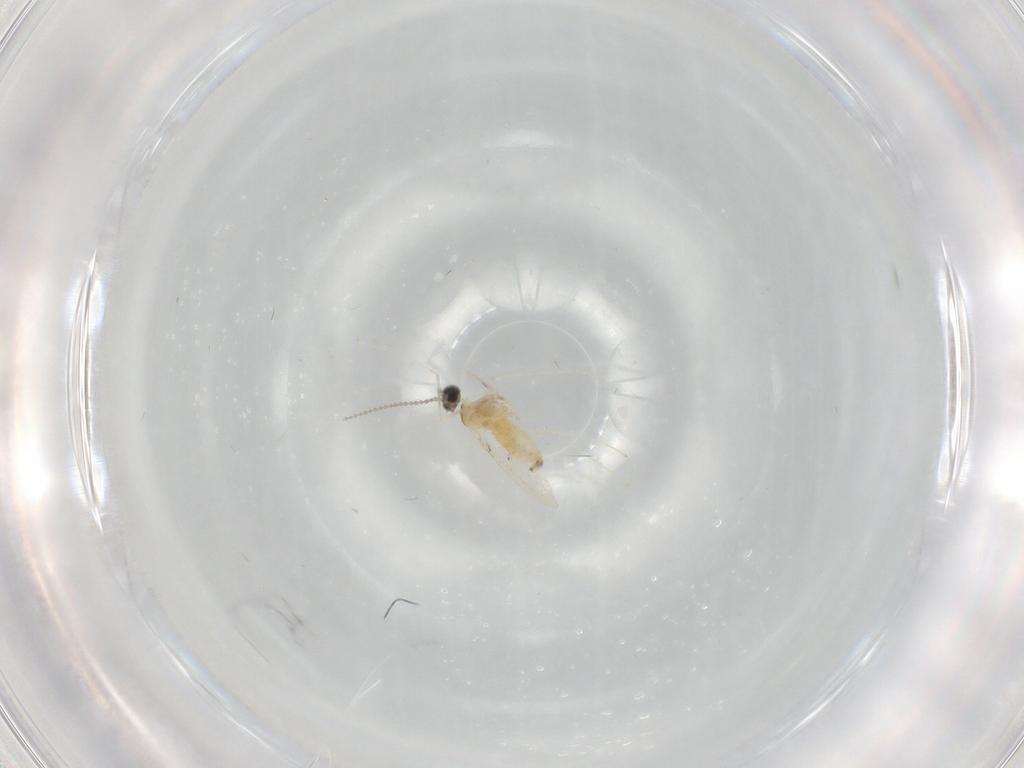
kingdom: Animalia
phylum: Arthropoda
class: Insecta
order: Diptera
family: Cecidomyiidae
